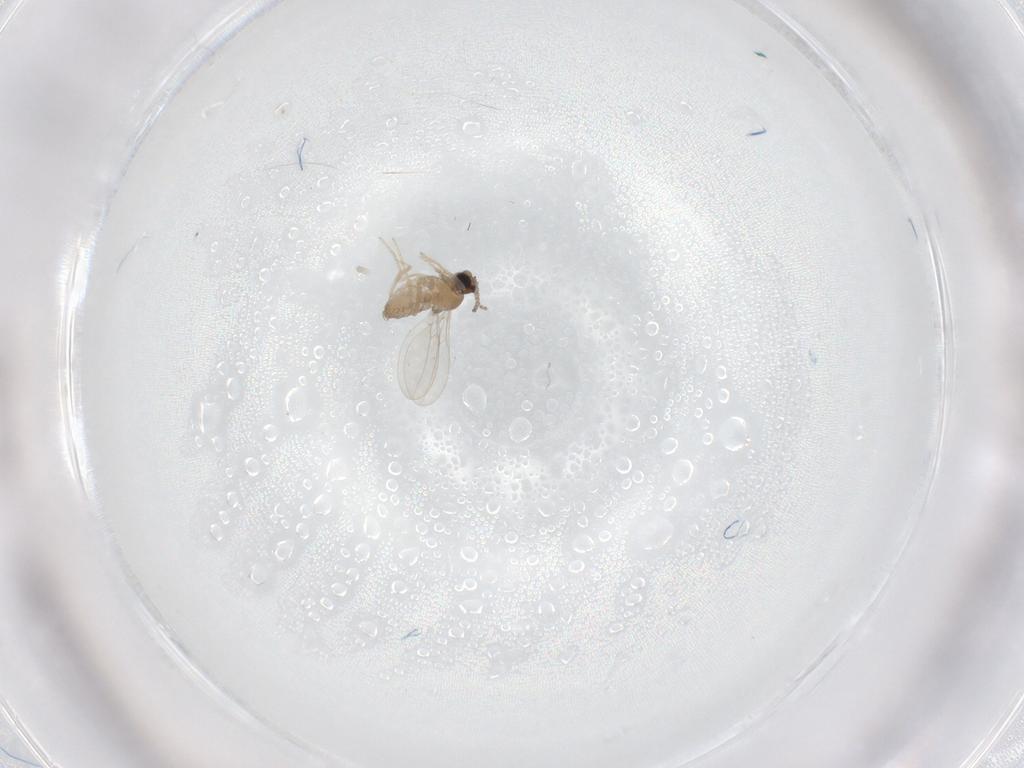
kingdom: Animalia
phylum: Arthropoda
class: Insecta
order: Diptera
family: Cecidomyiidae
